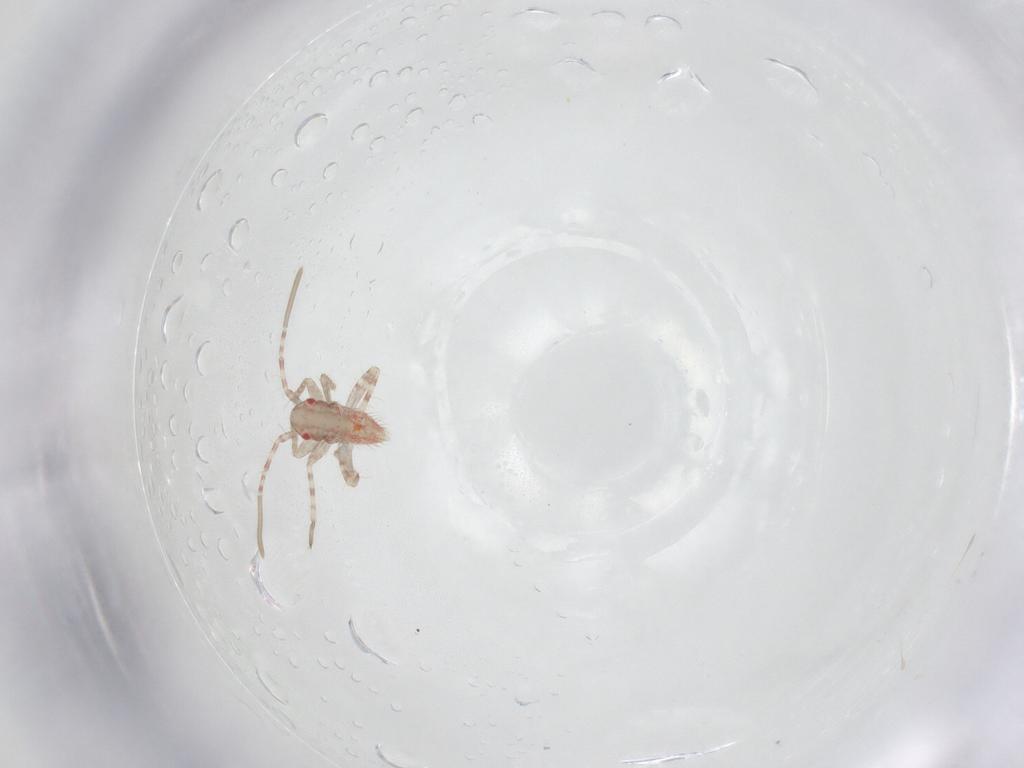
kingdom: Animalia
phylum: Arthropoda
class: Insecta
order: Hemiptera
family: Miridae
